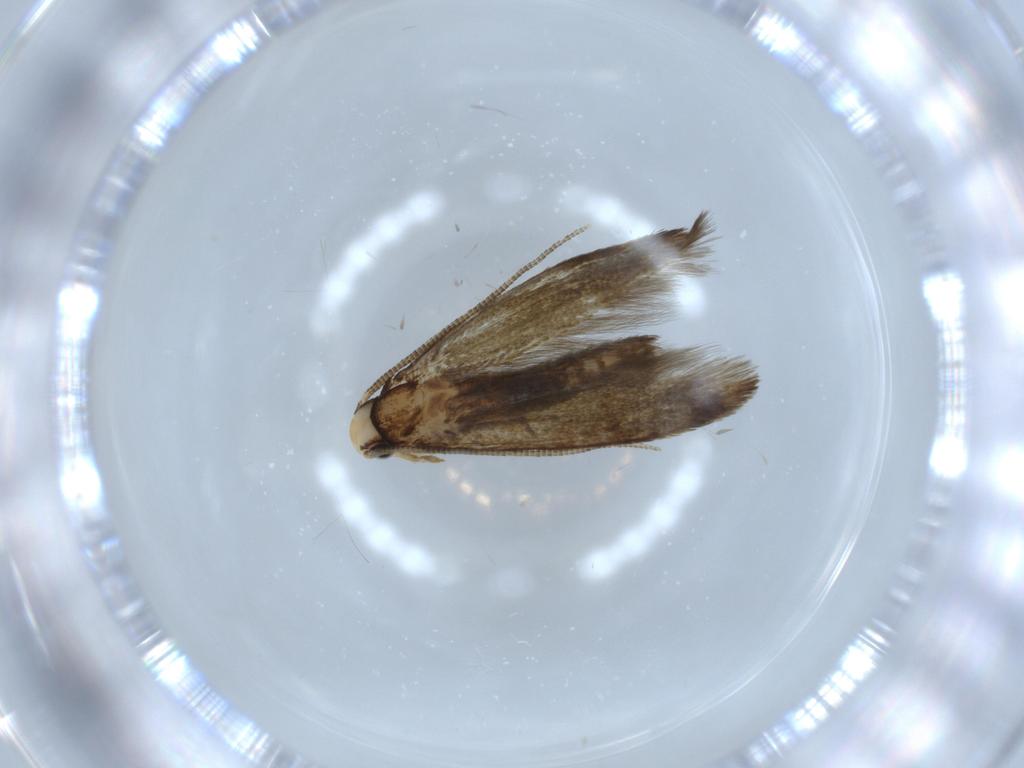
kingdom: Animalia
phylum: Arthropoda
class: Insecta
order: Lepidoptera
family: Tineidae
